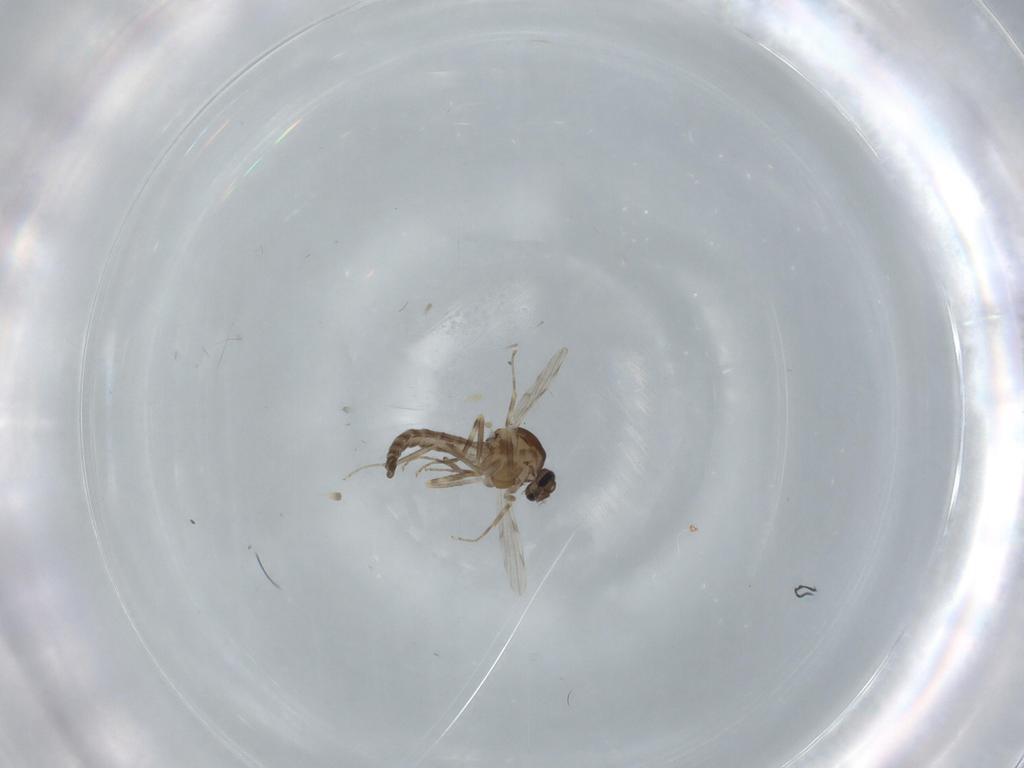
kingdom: Animalia
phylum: Arthropoda
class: Insecta
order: Diptera
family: Ceratopogonidae
